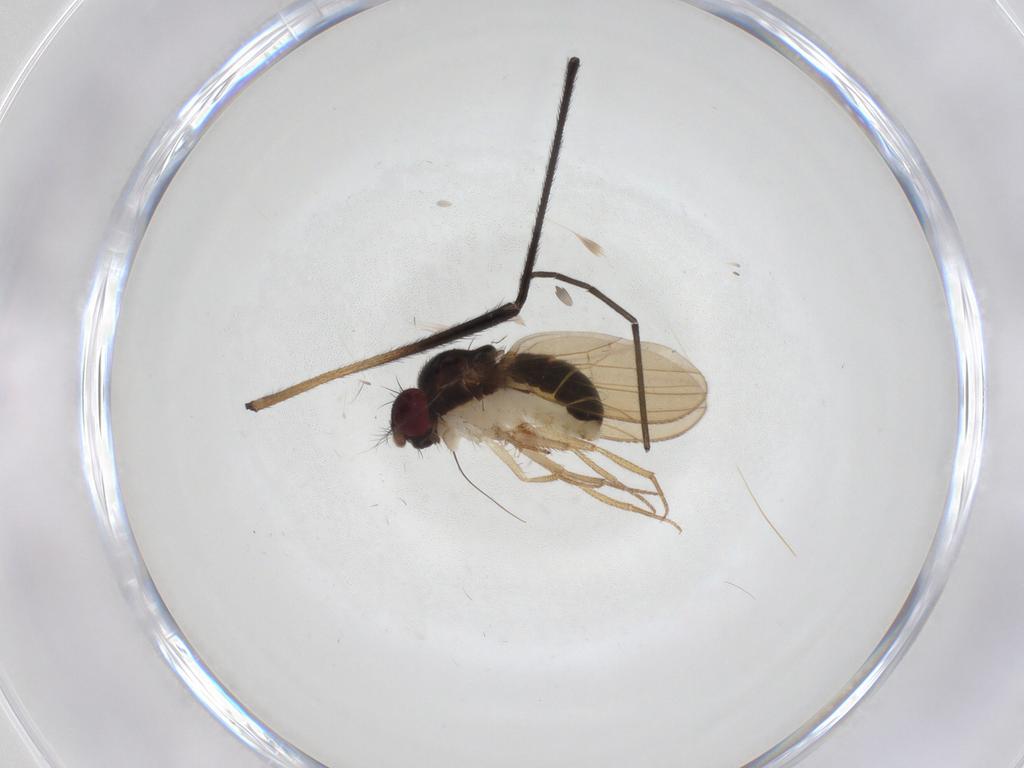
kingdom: Animalia
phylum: Arthropoda
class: Insecta
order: Diptera
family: Drosophilidae
